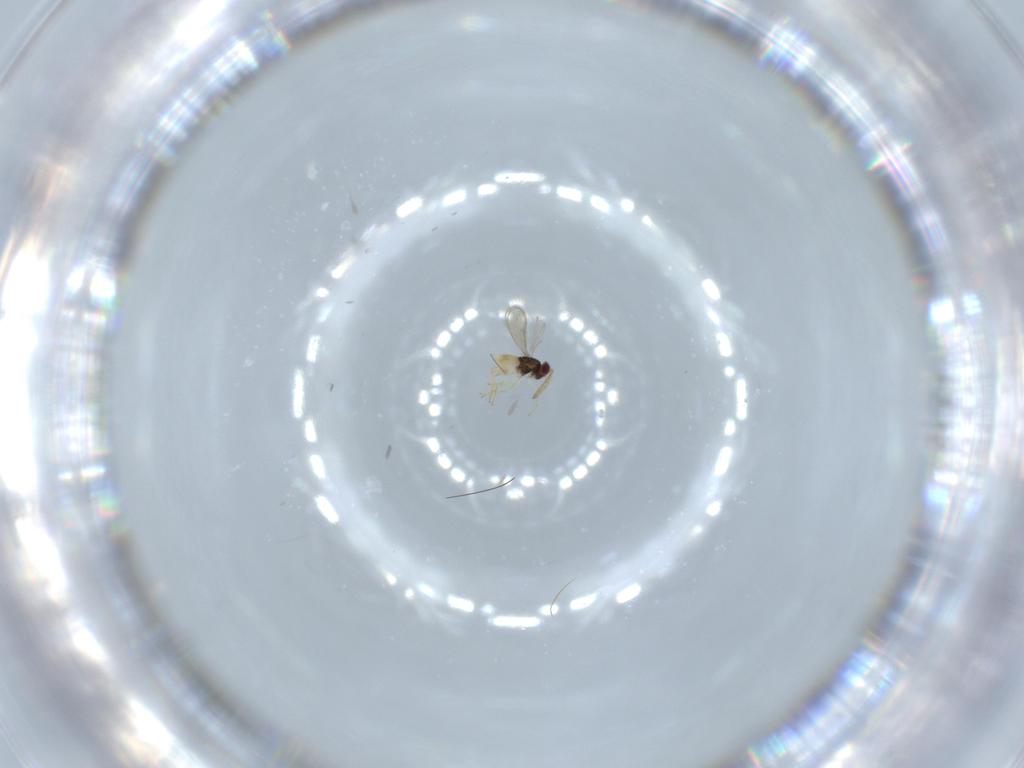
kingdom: Animalia
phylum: Arthropoda
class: Insecta
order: Hymenoptera
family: Aphelinidae
